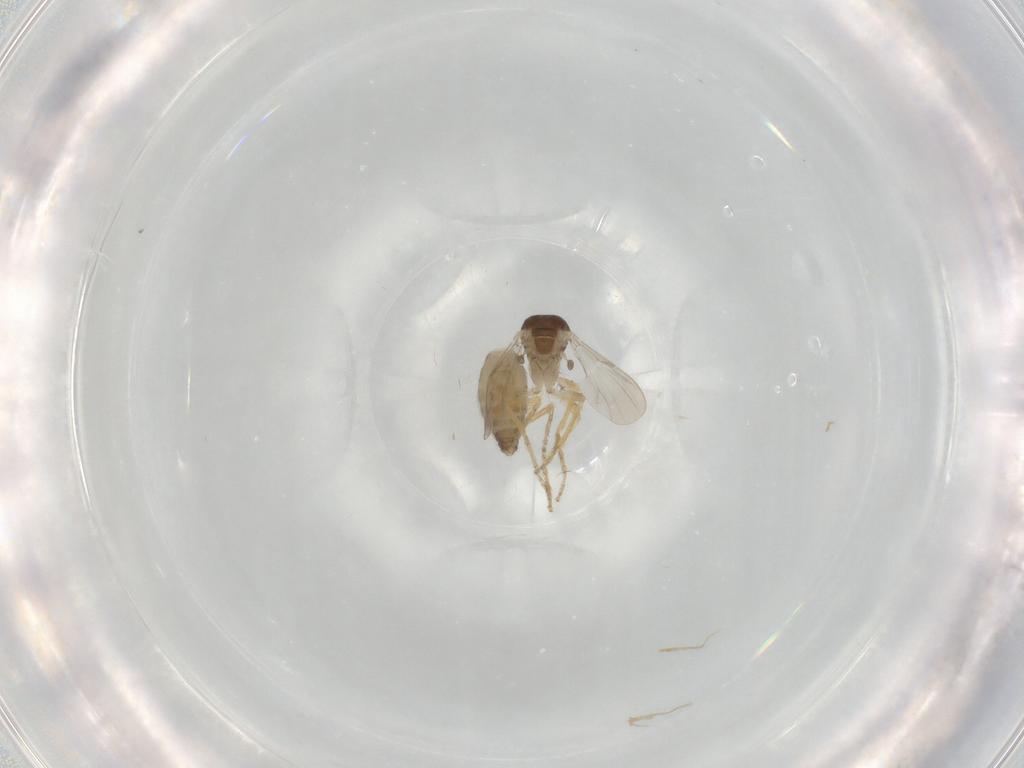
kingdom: Animalia
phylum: Arthropoda
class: Insecta
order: Diptera
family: Ceratopogonidae
